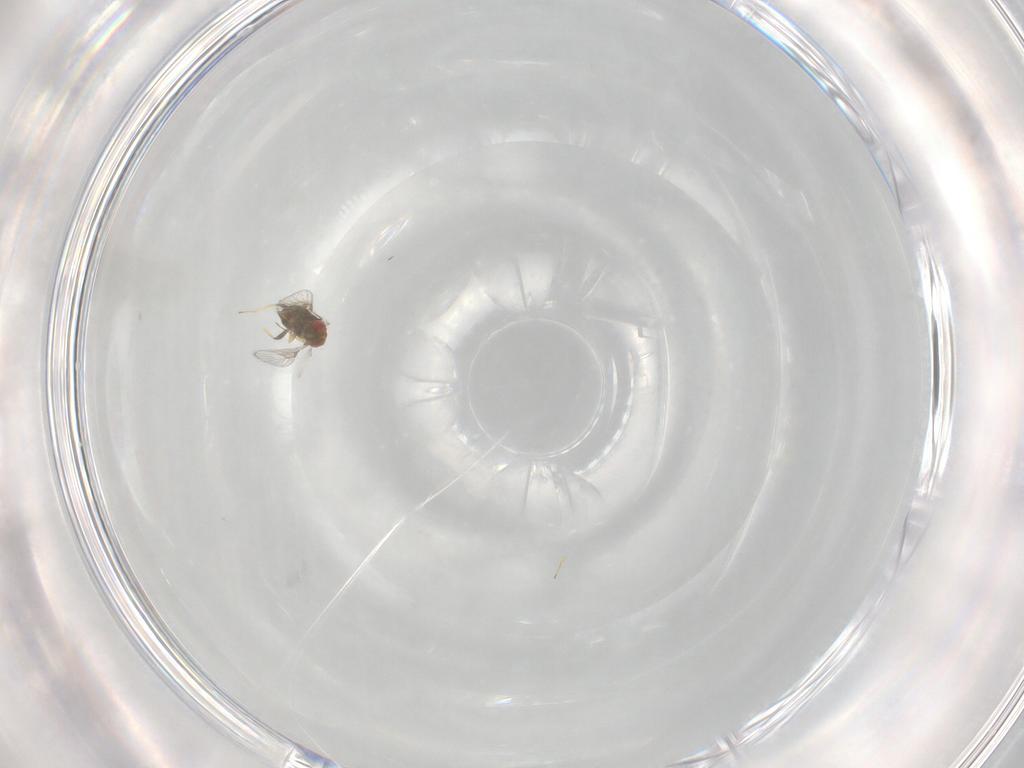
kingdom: Animalia
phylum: Arthropoda
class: Insecta
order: Hymenoptera
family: Trichogrammatidae
